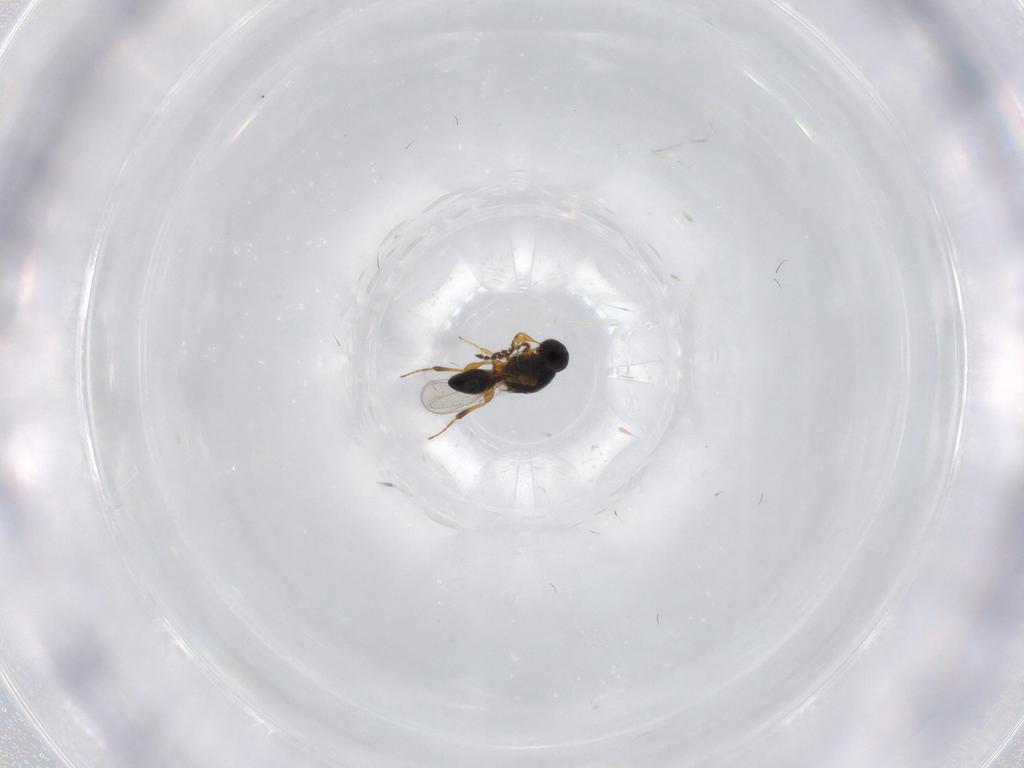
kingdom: Animalia
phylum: Arthropoda
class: Insecta
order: Hymenoptera
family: Platygastridae
